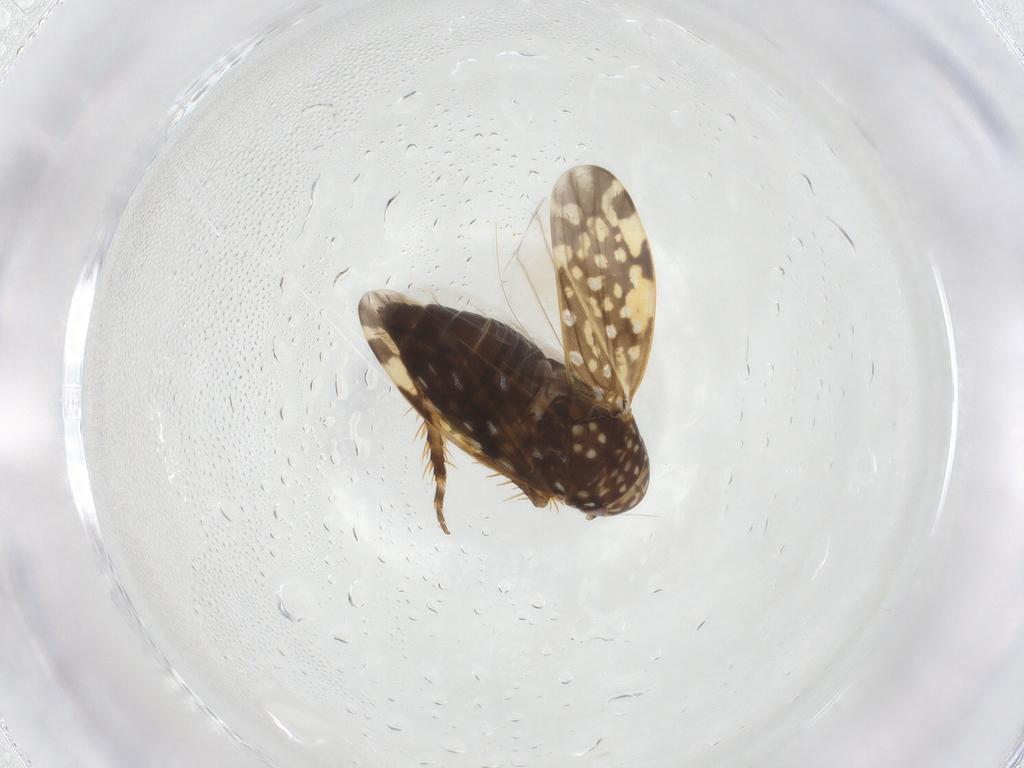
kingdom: Animalia
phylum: Arthropoda
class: Insecta
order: Hemiptera
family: Cicadellidae
